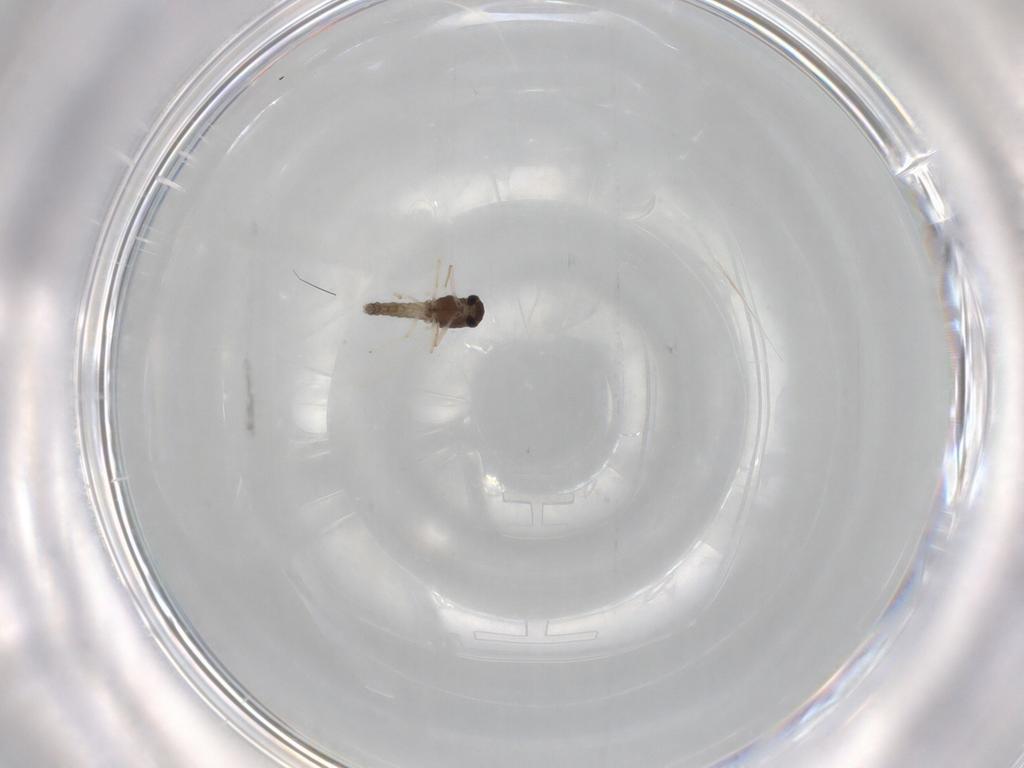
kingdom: Animalia
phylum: Arthropoda
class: Insecta
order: Diptera
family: Chironomidae
